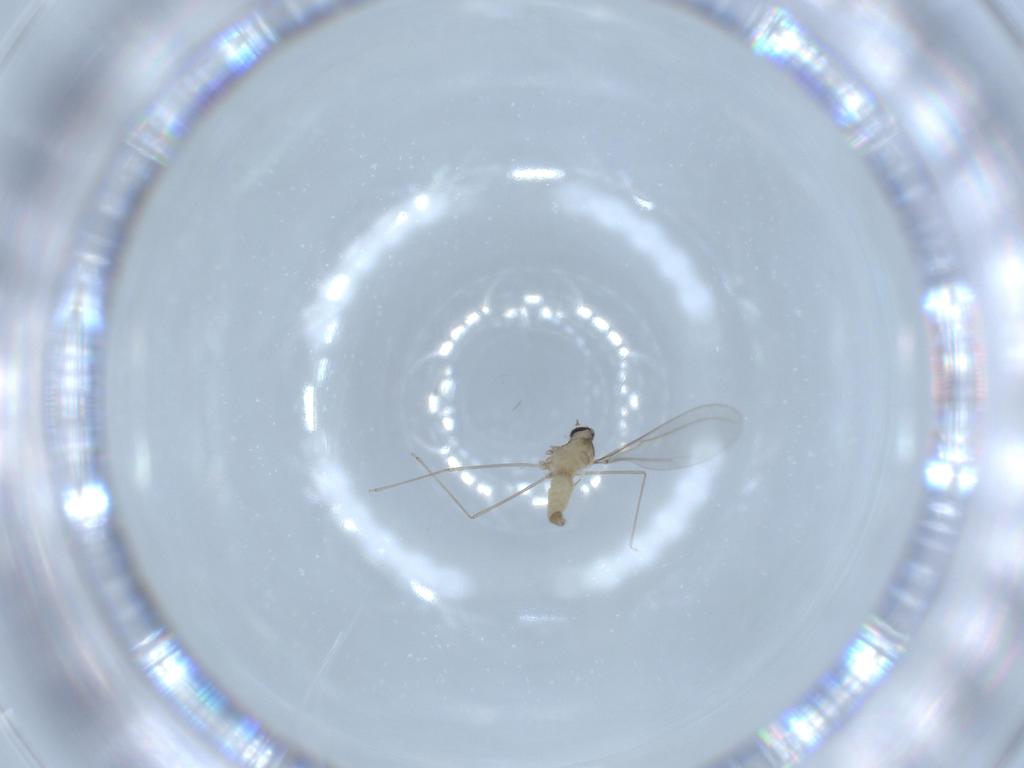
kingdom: Animalia
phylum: Arthropoda
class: Insecta
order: Diptera
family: Cecidomyiidae
